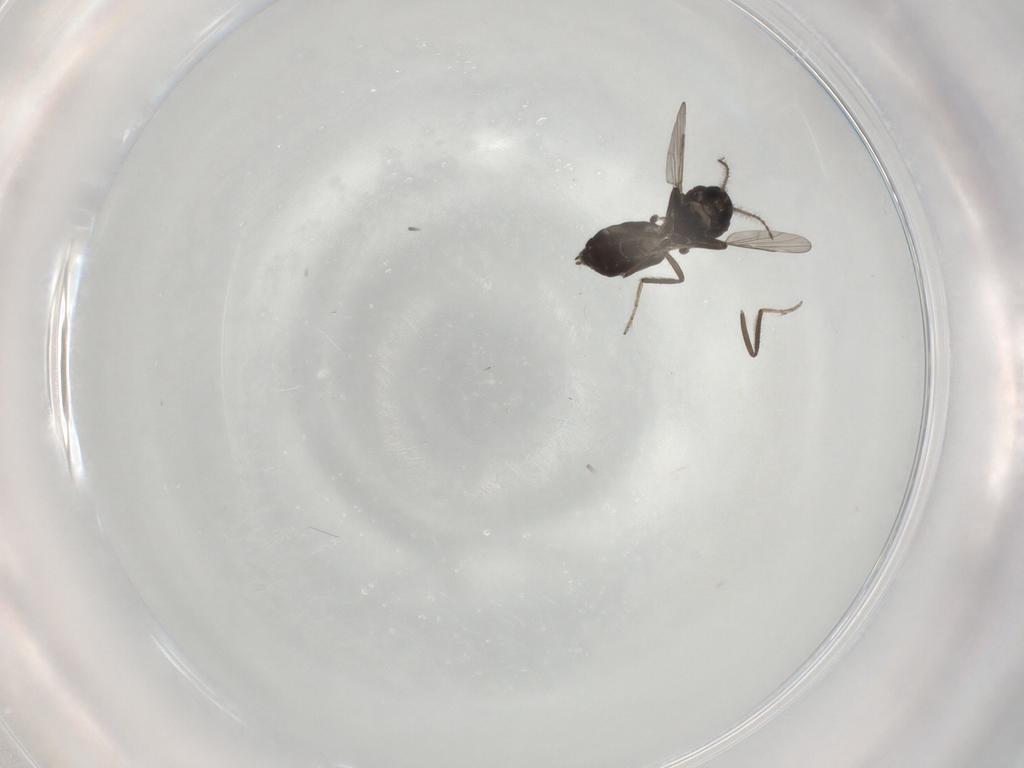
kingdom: Animalia
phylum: Arthropoda
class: Insecta
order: Diptera
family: Ceratopogonidae
